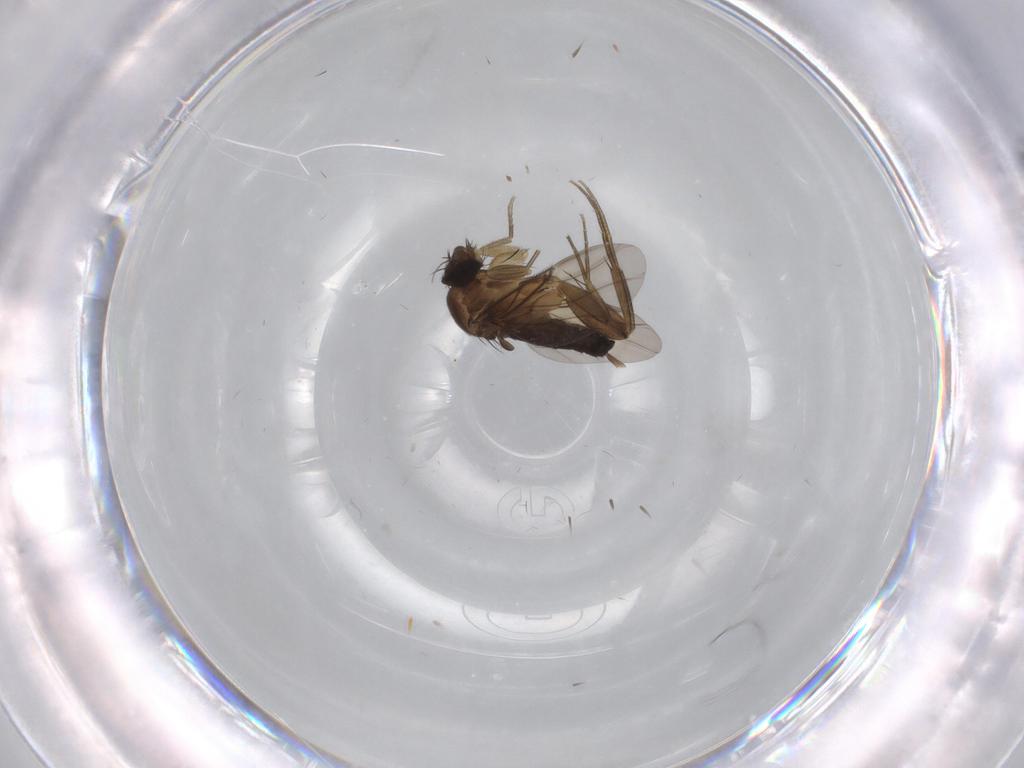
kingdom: Animalia
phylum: Arthropoda
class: Insecta
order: Diptera
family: Phoridae
